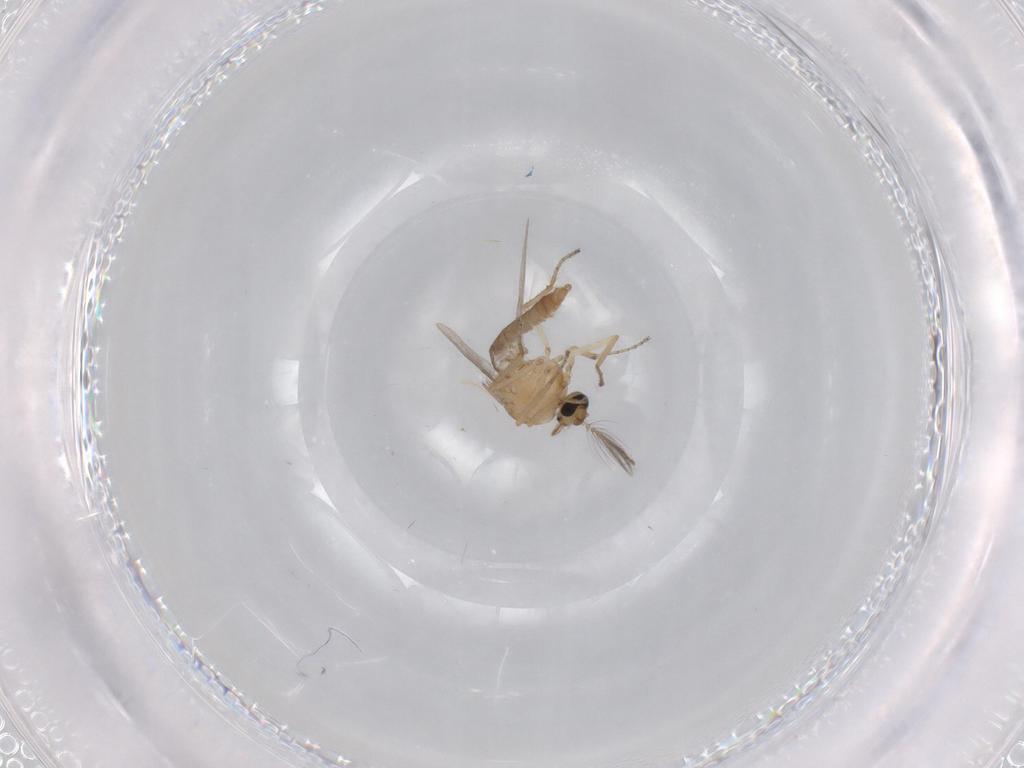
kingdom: Animalia
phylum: Arthropoda
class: Insecta
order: Diptera
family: Ceratopogonidae
